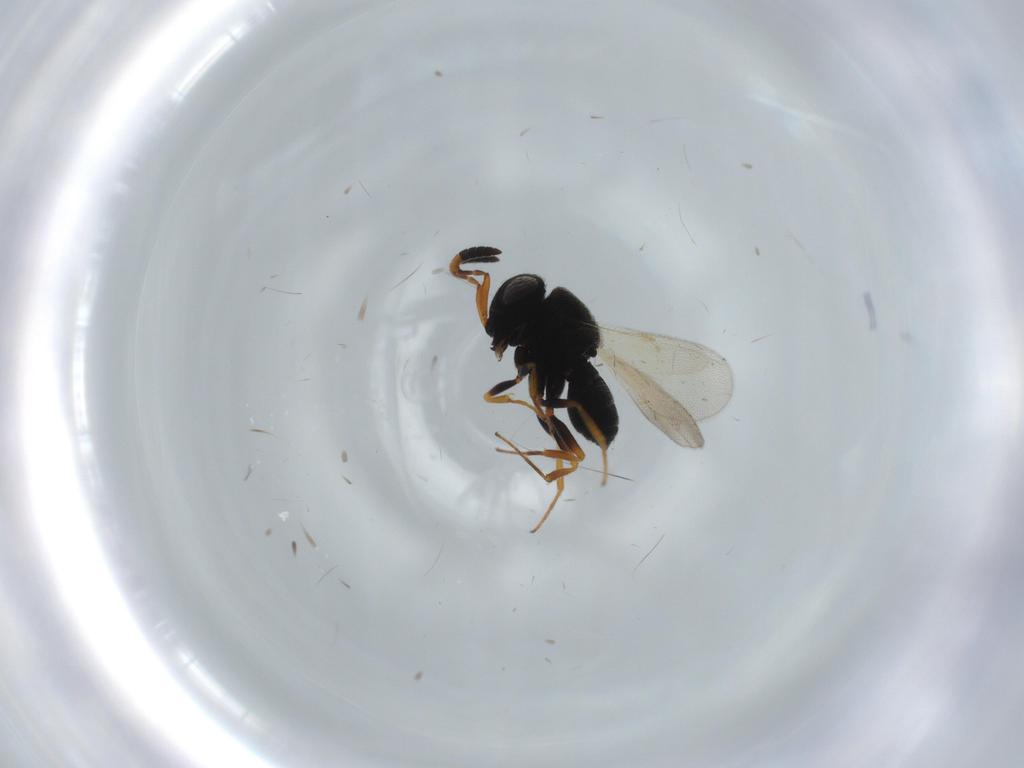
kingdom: Animalia
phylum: Arthropoda
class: Insecta
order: Hymenoptera
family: Scelionidae
